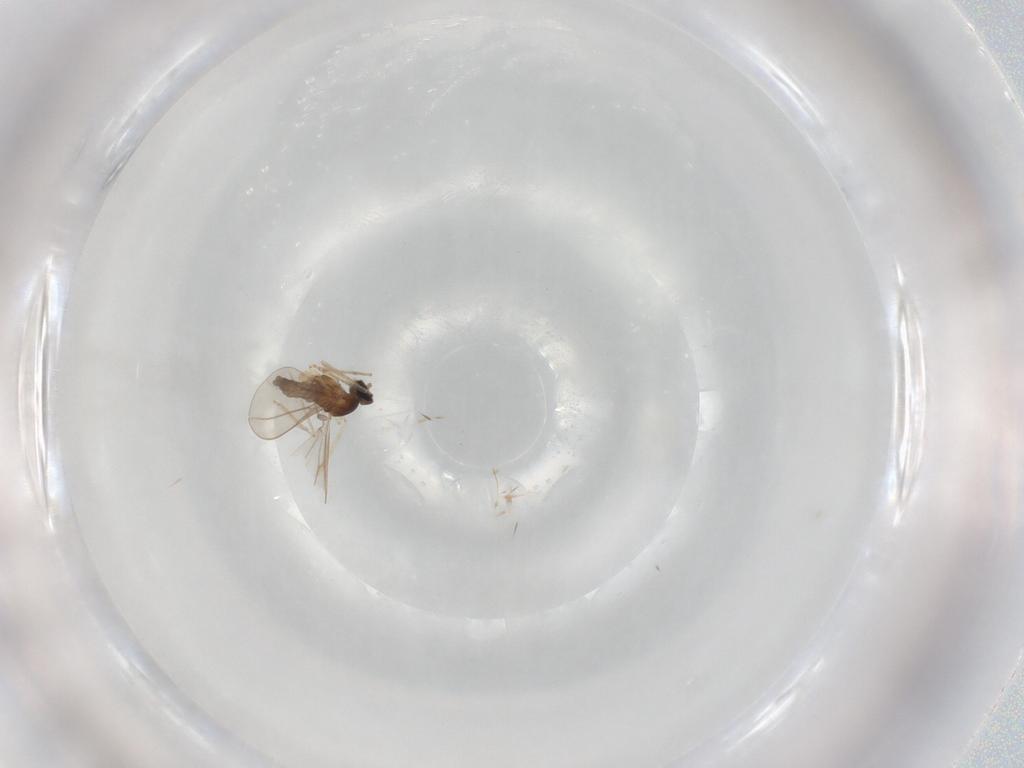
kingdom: Animalia
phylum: Arthropoda
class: Insecta
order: Diptera
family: Cecidomyiidae
